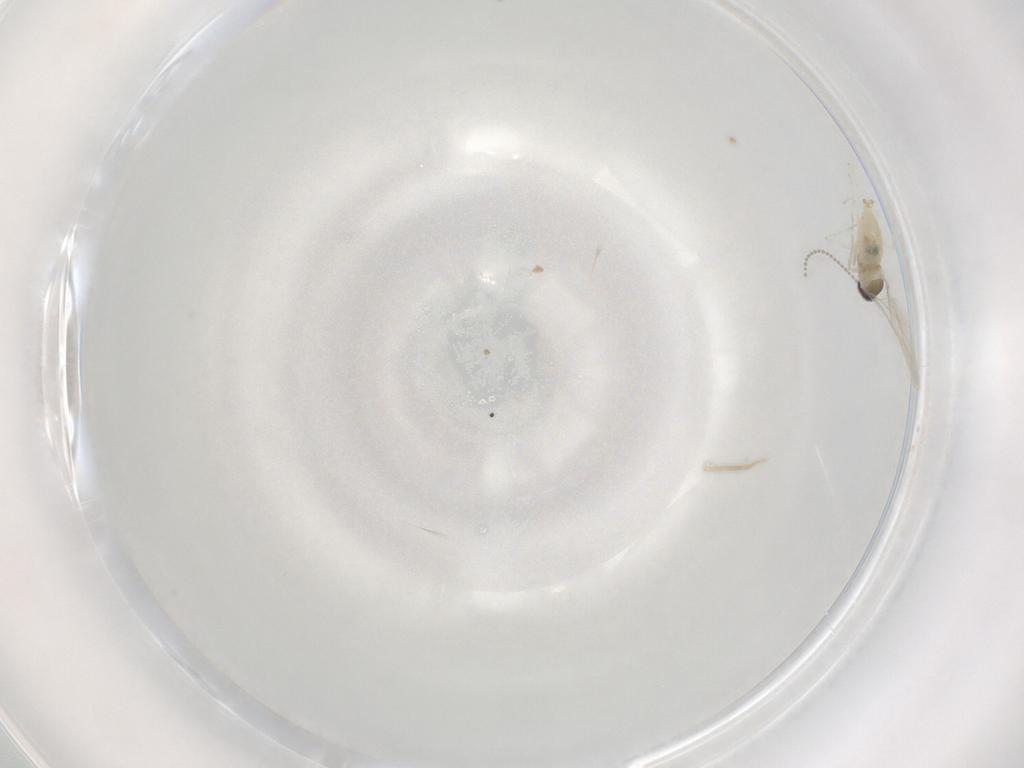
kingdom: Animalia
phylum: Arthropoda
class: Insecta
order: Diptera
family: Cecidomyiidae
